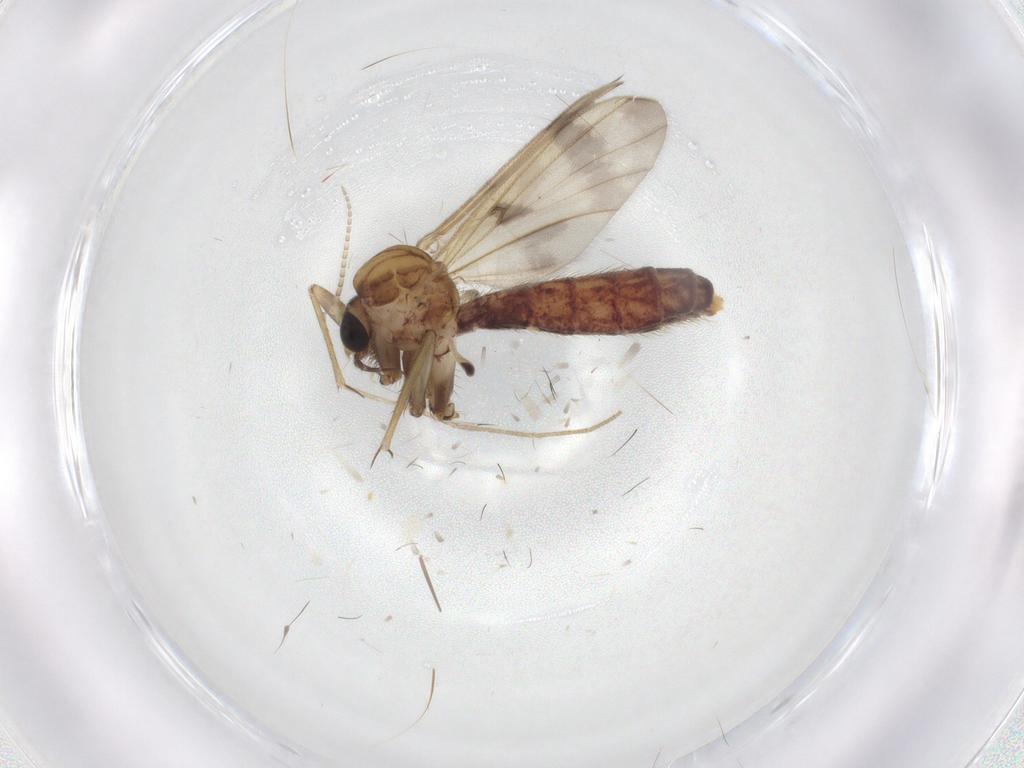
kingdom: Animalia
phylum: Arthropoda
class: Insecta
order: Diptera
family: Mycetophilidae
